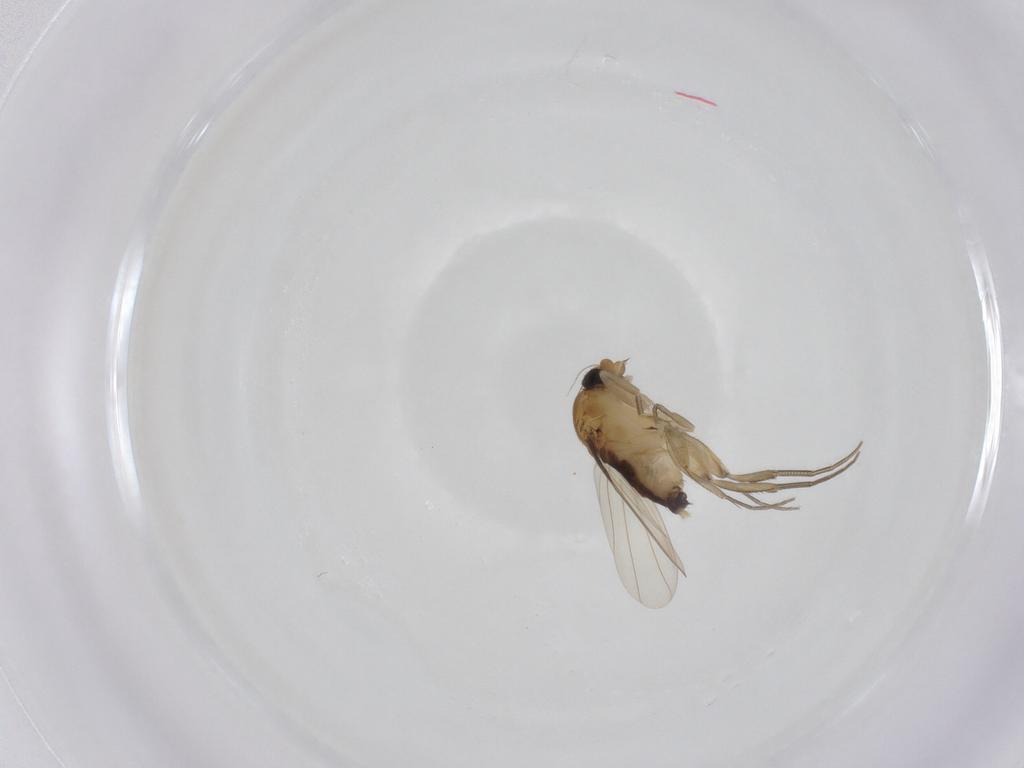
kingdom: Animalia
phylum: Arthropoda
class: Insecta
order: Diptera
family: Phoridae
